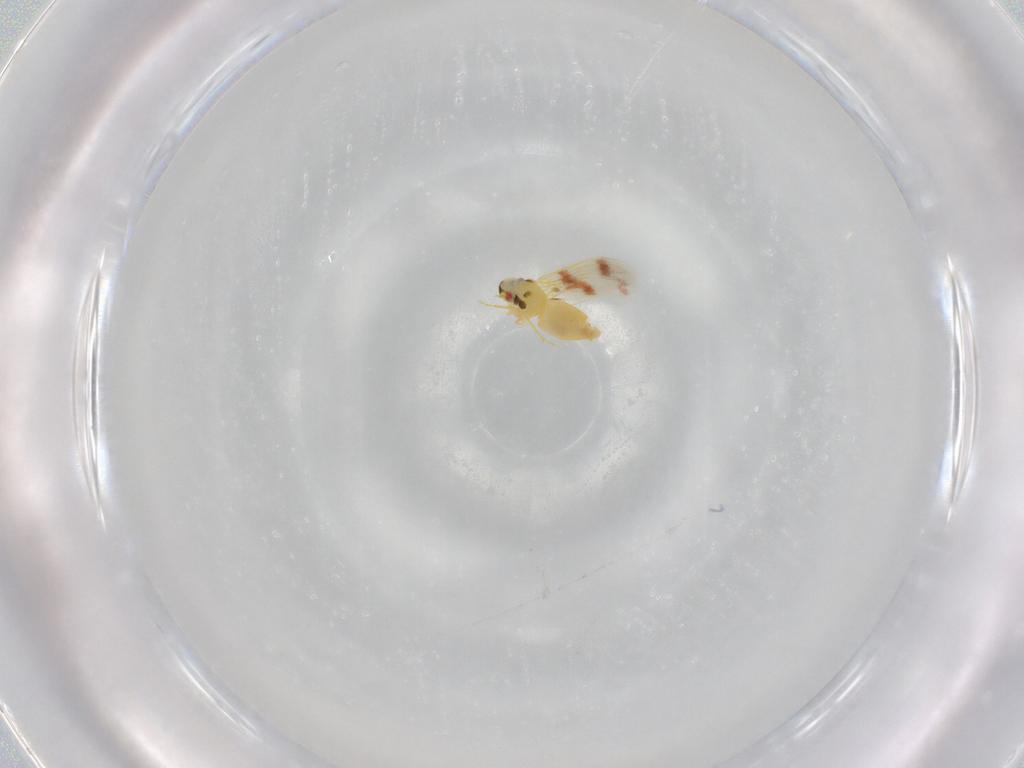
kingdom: Animalia
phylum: Arthropoda
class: Insecta
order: Hemiptera
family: Aleyrodidae
